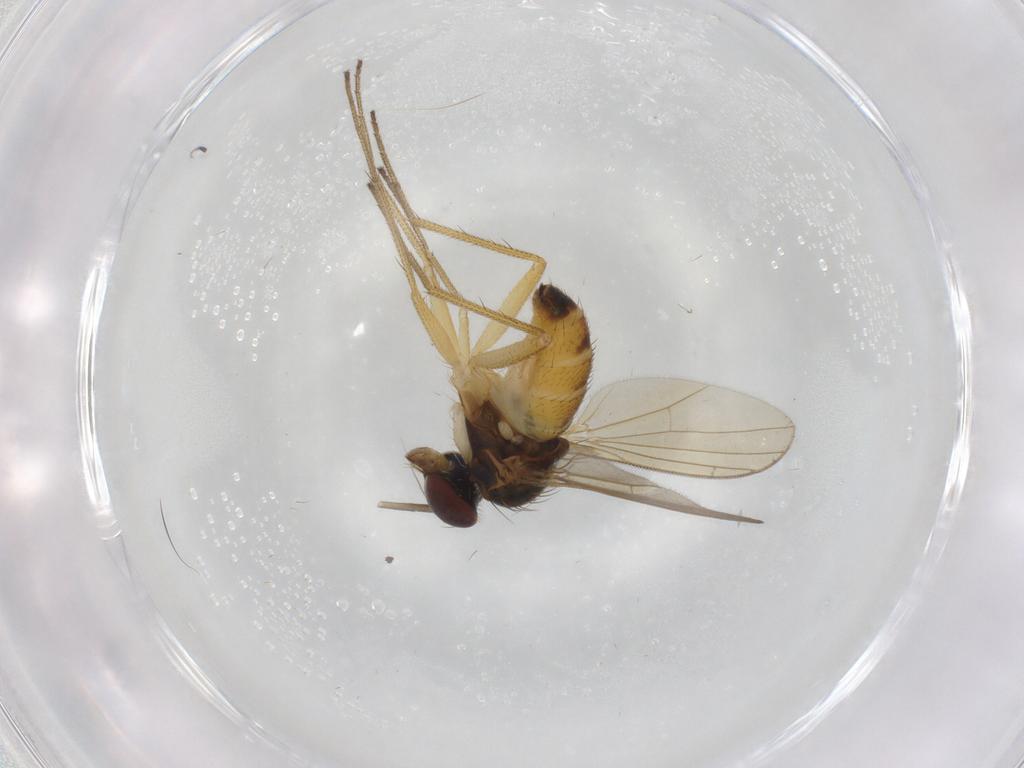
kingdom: Animalia
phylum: Arthropoda
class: Insecta
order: Diptera
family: Dolichopodidae
